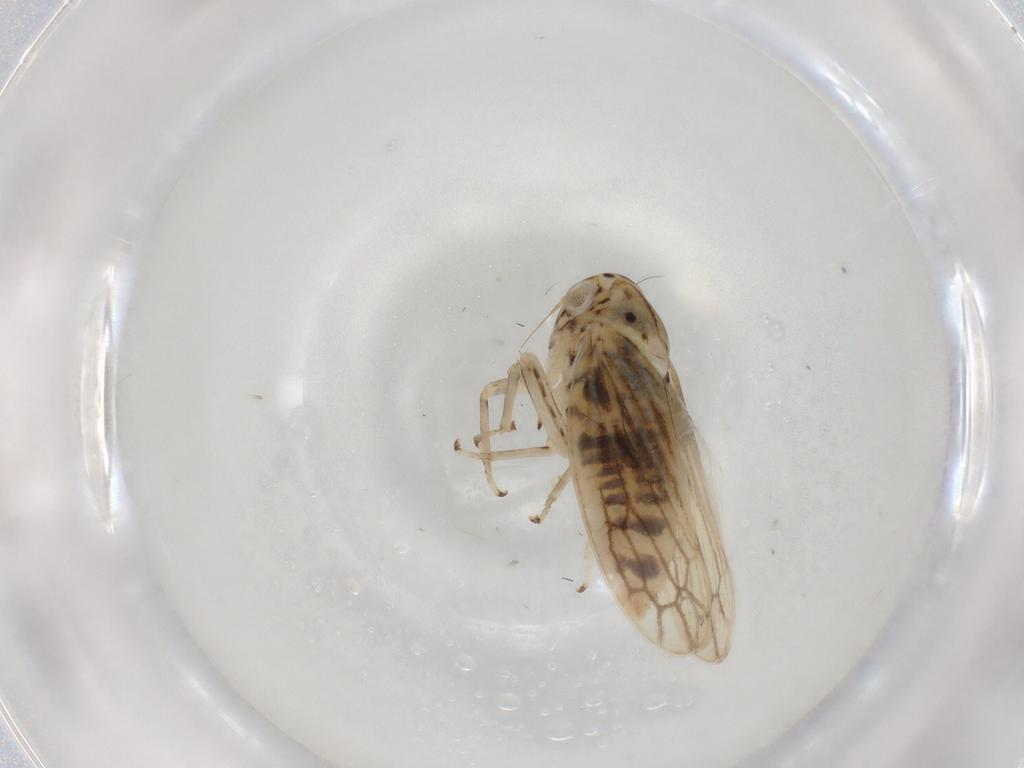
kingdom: Animalia
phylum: Arthropoda
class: Insecta
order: Hemiptera
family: Cicadellidae
